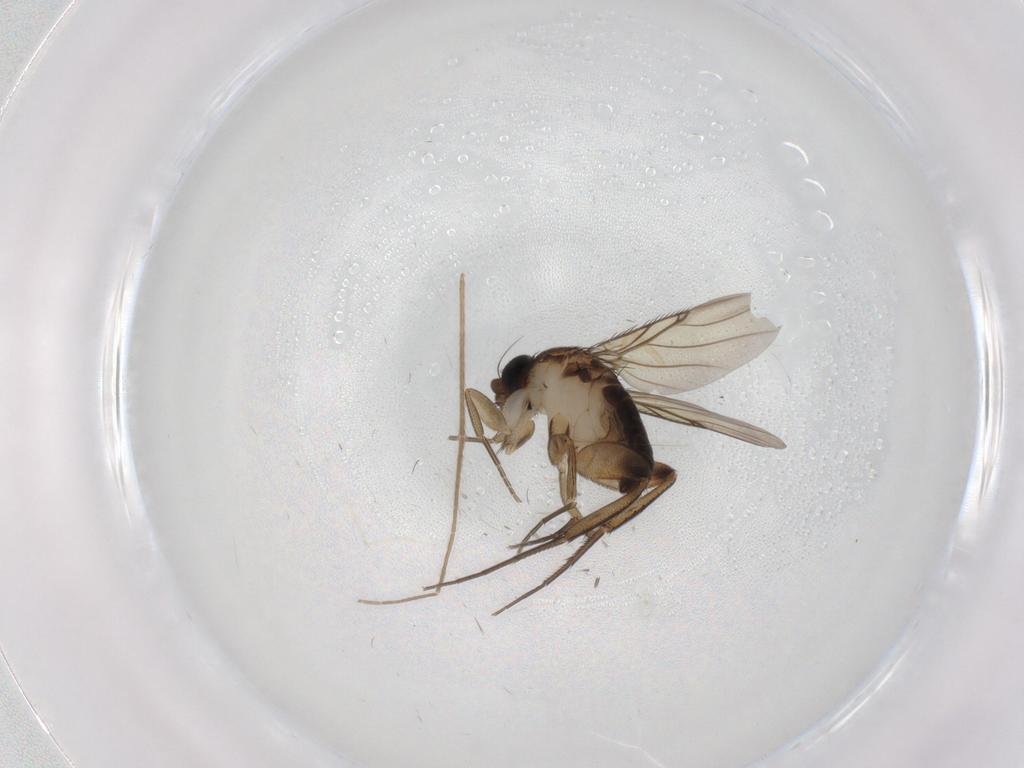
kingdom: Animalia
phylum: Arthropoda
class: Insecta
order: Diptera
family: Phoridae
